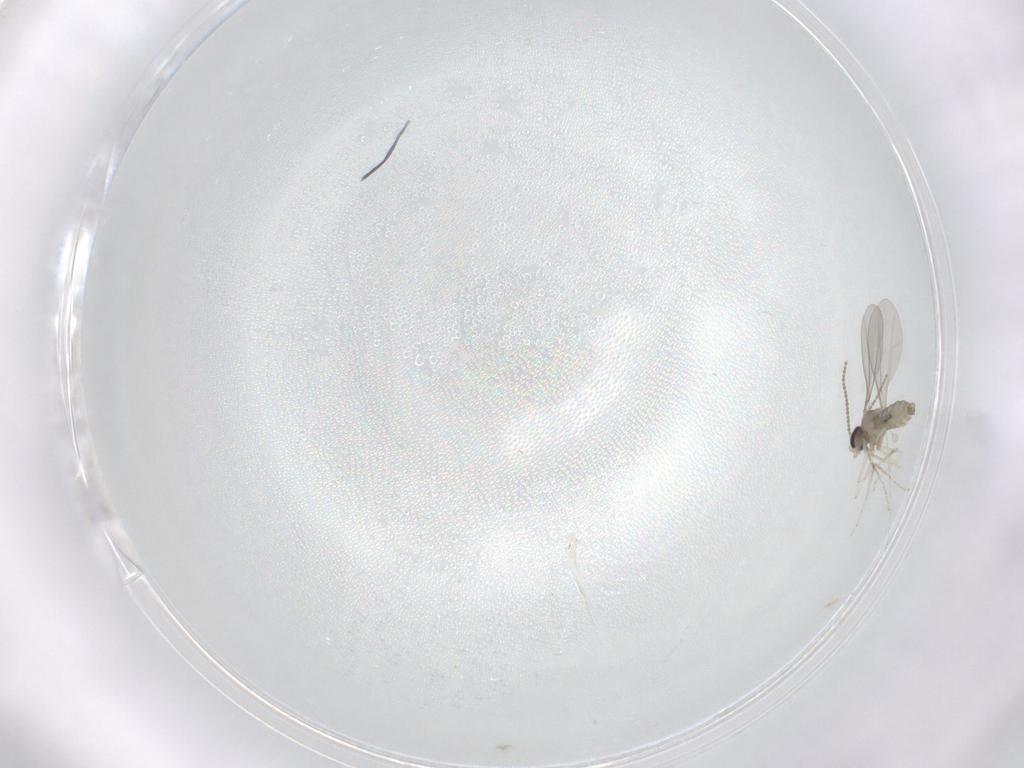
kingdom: Animalia
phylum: Arthropoda
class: Insecta
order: Diptera
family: Cecidomyiidae
